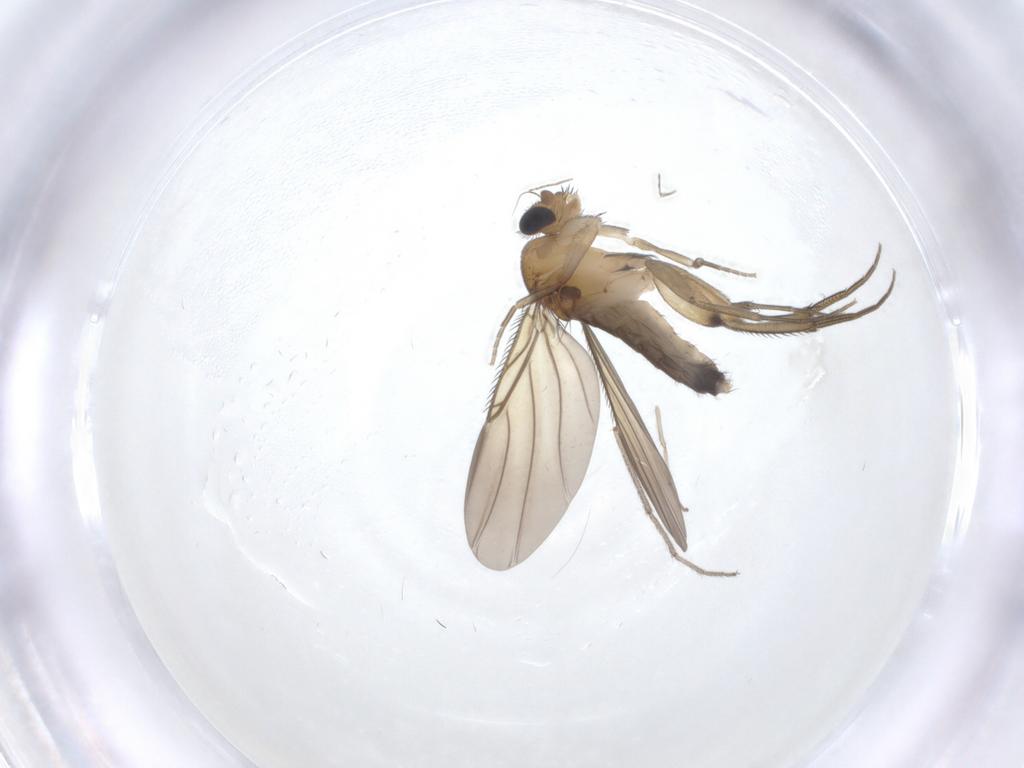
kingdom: Animalia
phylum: Arthropoda
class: Insecta
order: Diptera
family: Phoridae
